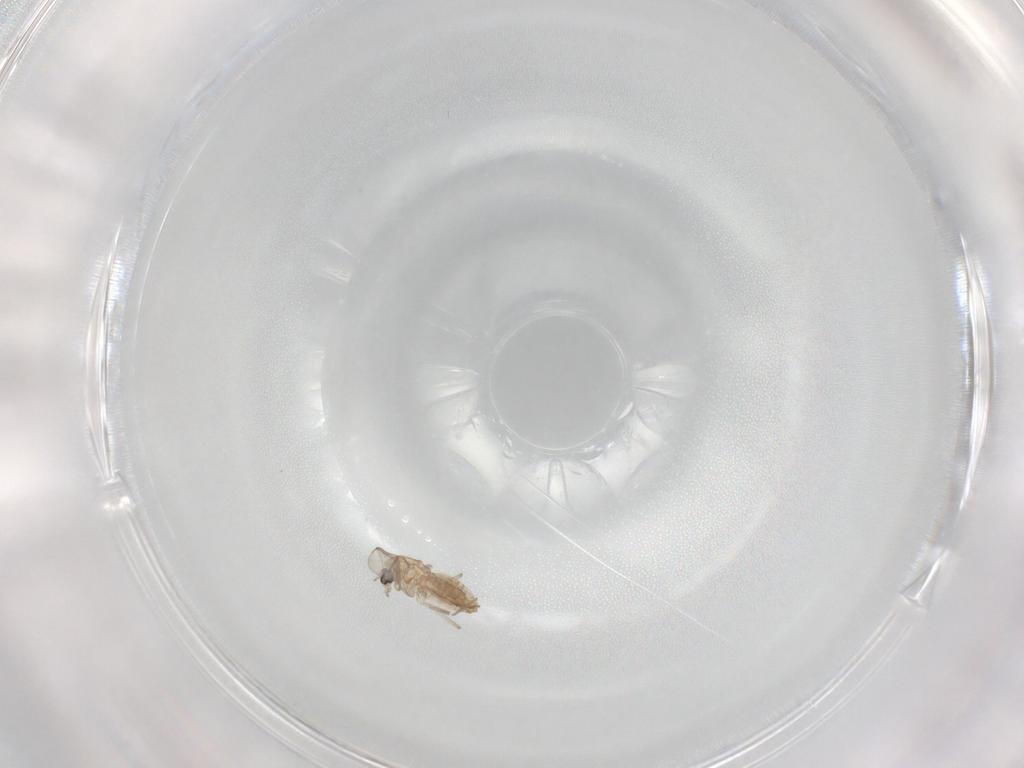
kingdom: Animalia
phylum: Arthropoda
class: Insecta
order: Diptera
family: Chironomidae
